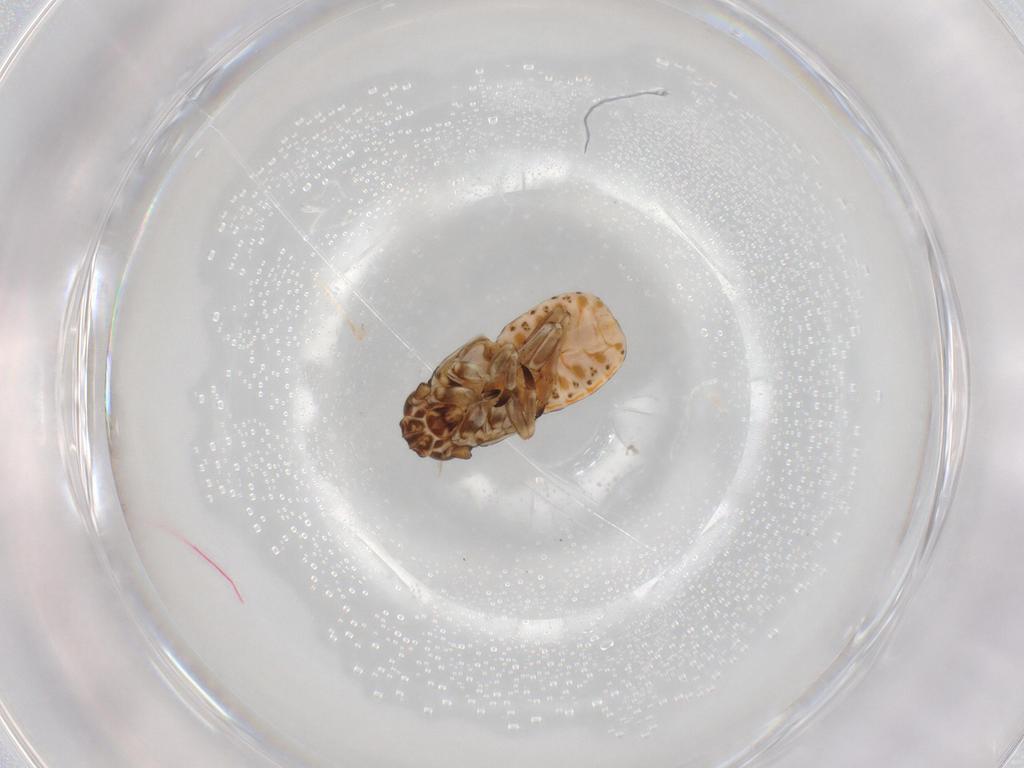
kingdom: Animalia
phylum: Arthropoda
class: Insecta
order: Hemiptera
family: Delphacidae
